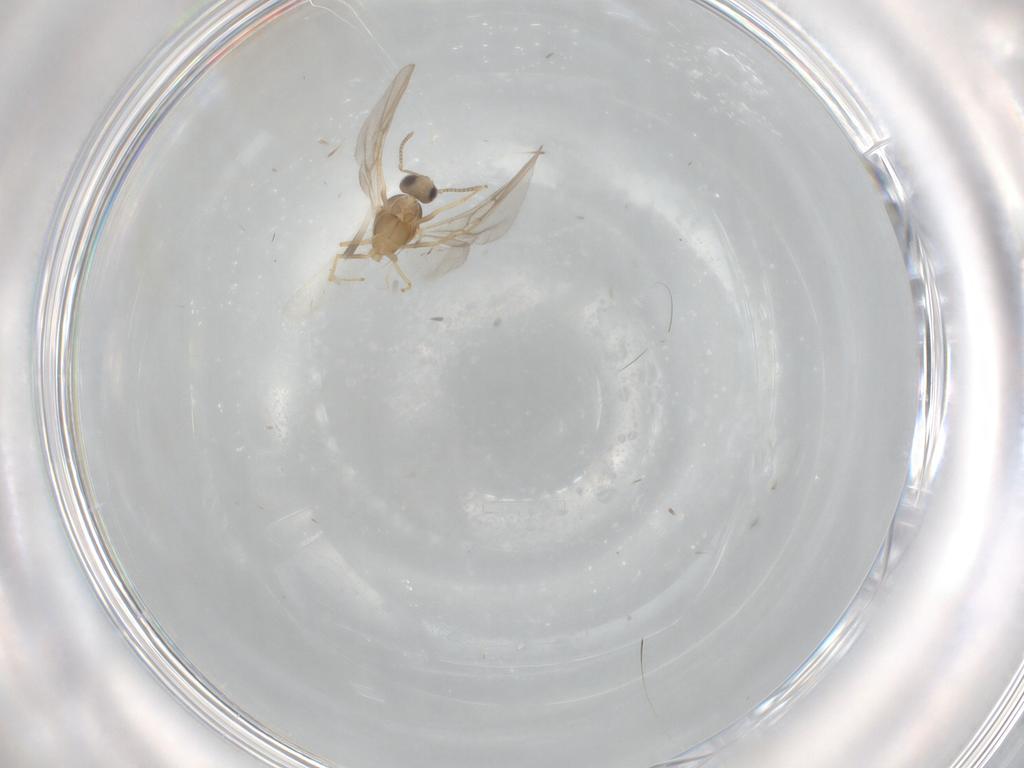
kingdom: Animalia
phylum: Arthropoda
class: Insecta
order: Hymenoptera
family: Formicidae
